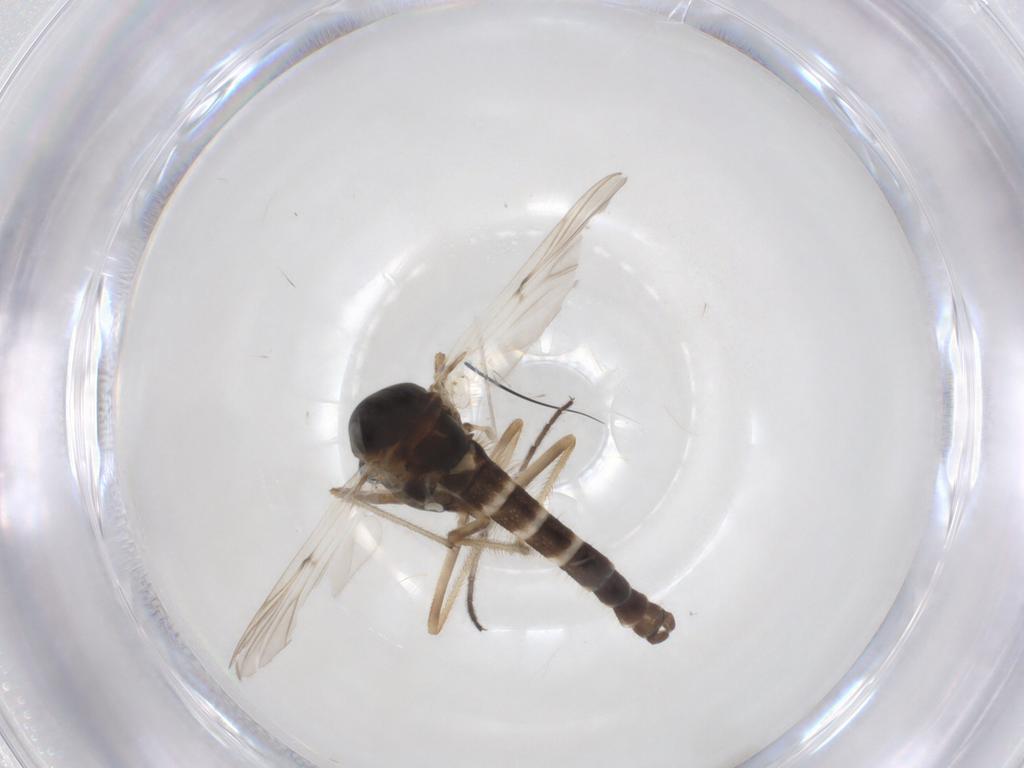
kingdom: Animalia
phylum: Arthropoda
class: Insecta
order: Diptera
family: Chironomidae
